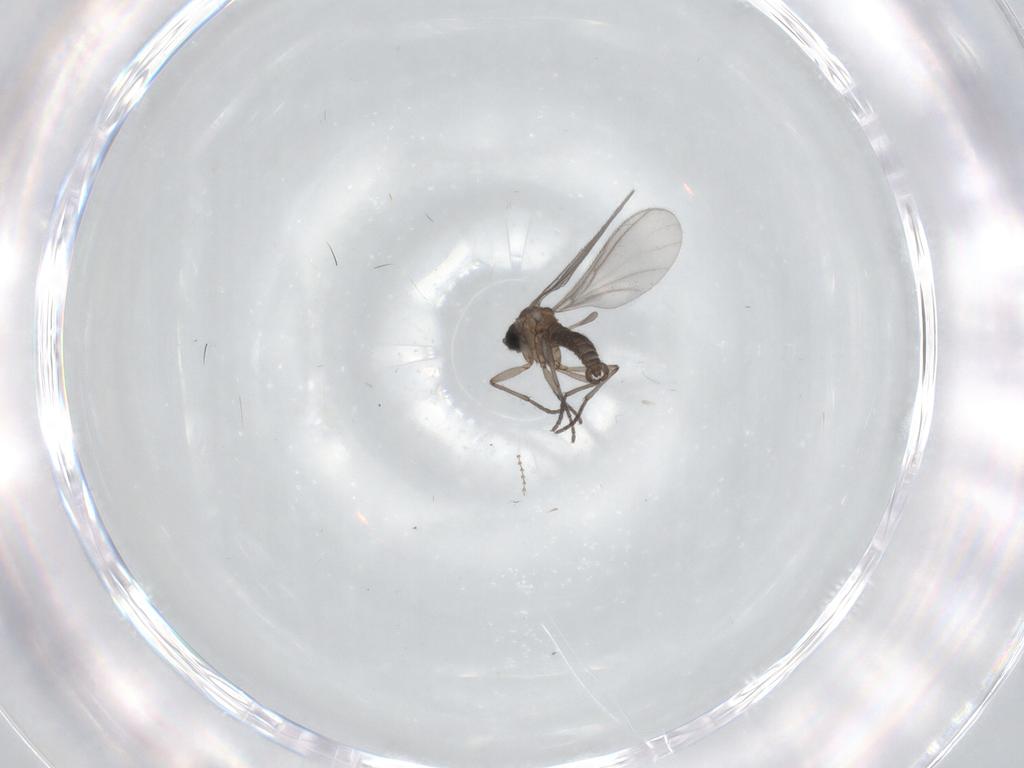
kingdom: Animalia
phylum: Arthropoda
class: Insecta
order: Diptera
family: Sciaridae
